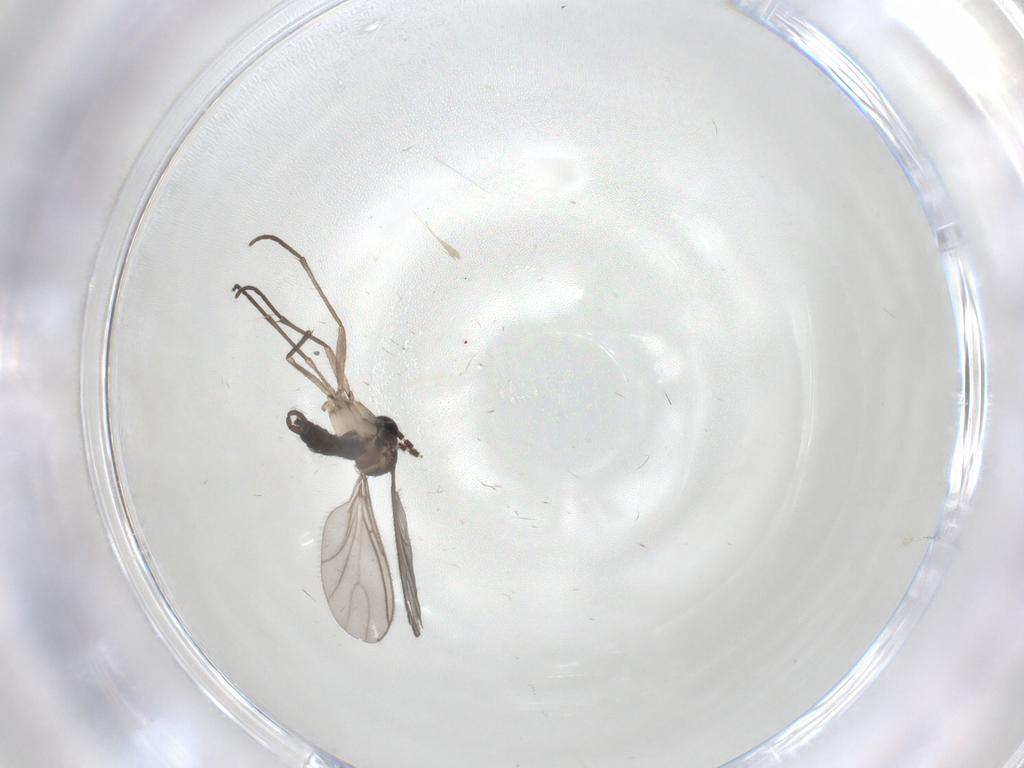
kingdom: Animalia
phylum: Arthropoda
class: Insecta
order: Diptera
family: Sciaridae
